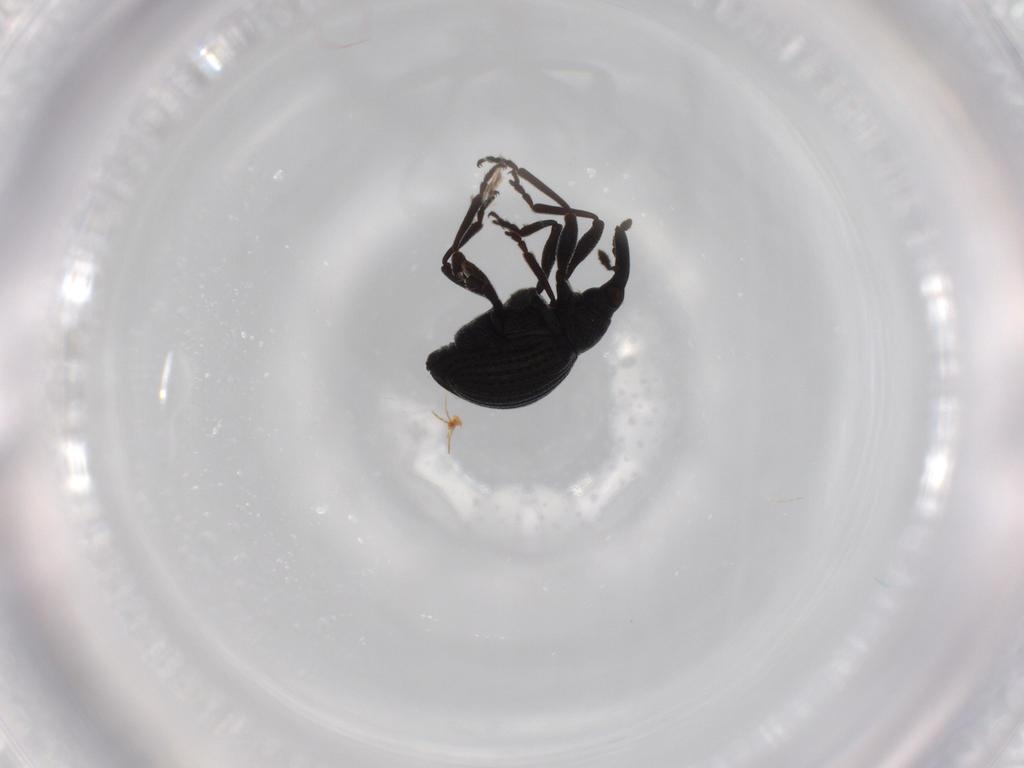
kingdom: Animalia
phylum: Arthropoda
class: Insecta
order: Coleoptera
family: Brentidae
